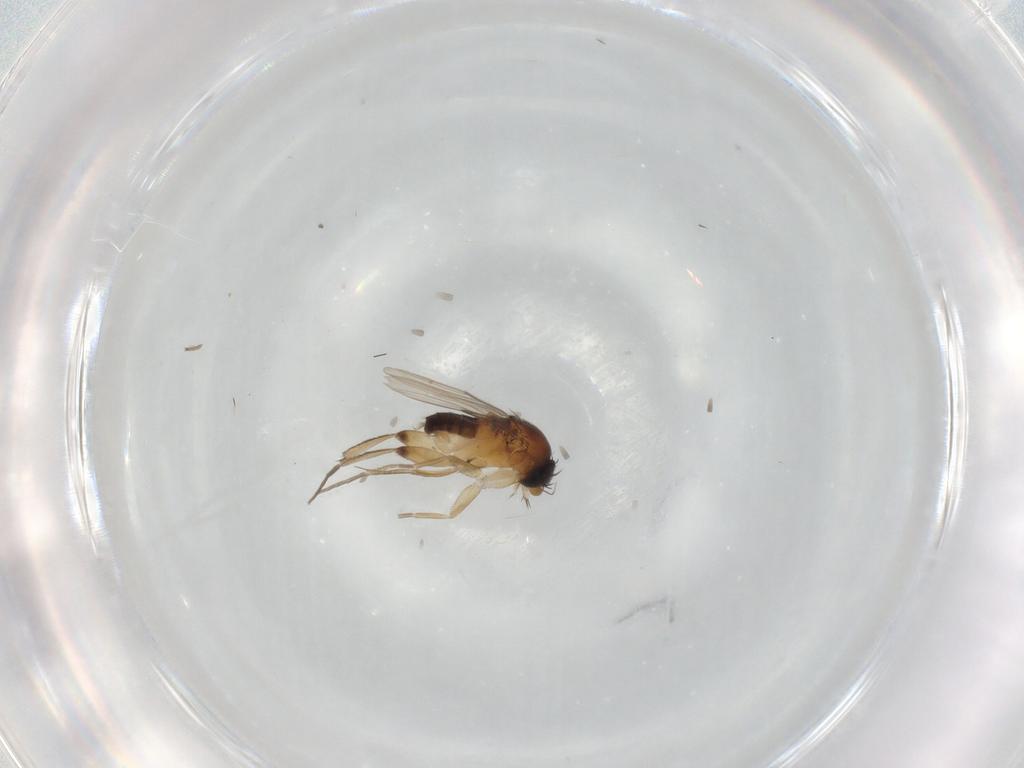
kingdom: Animalia
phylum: Arthropoda
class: Insecta
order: Diptera
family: Phoridae
